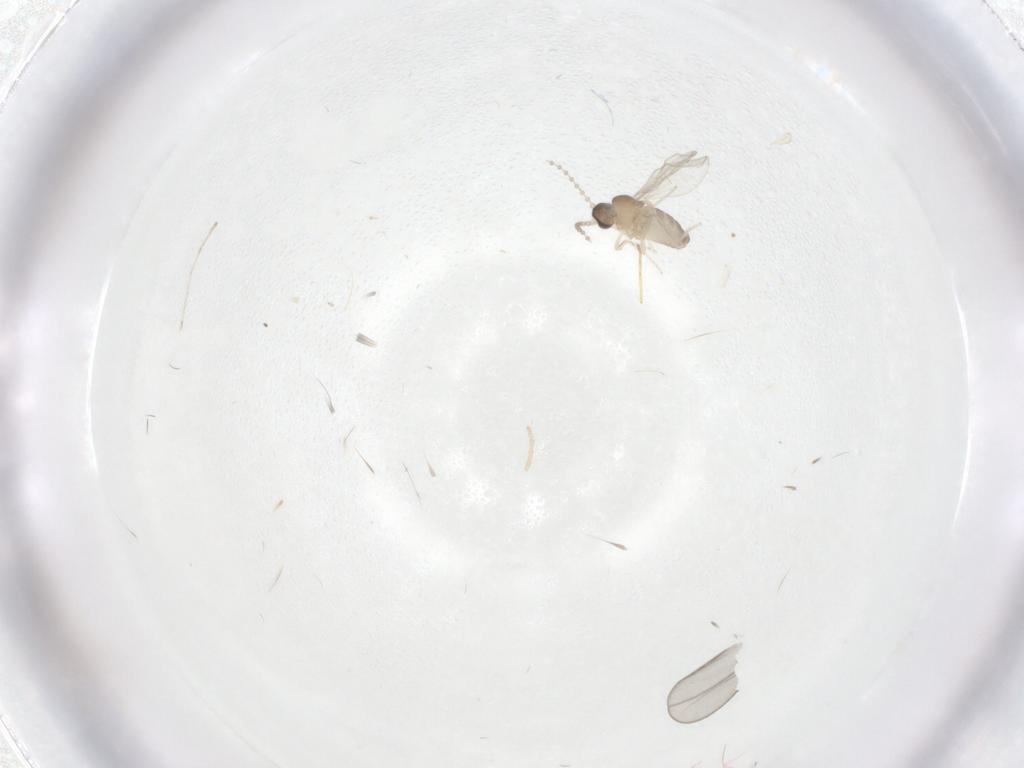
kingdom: Animalia
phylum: Arthropoda
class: Insecta
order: Diptera
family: Cecidomyiidae
